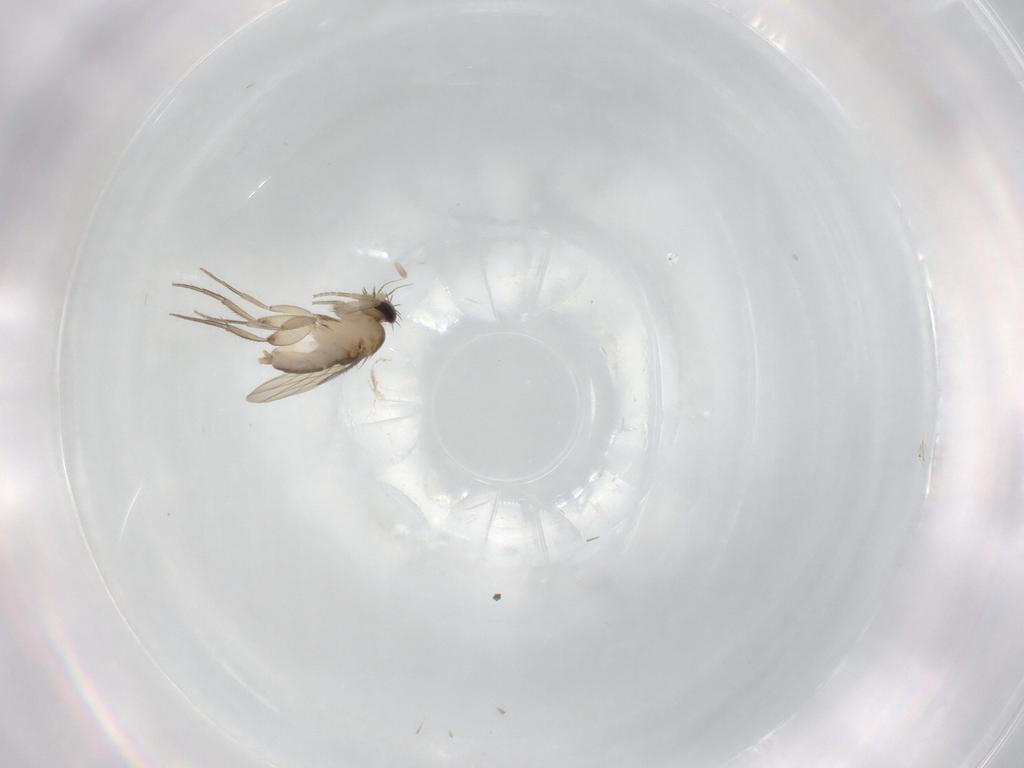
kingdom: Animalia
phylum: Arthropoda
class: Insecta
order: Diptera
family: Phoridae
